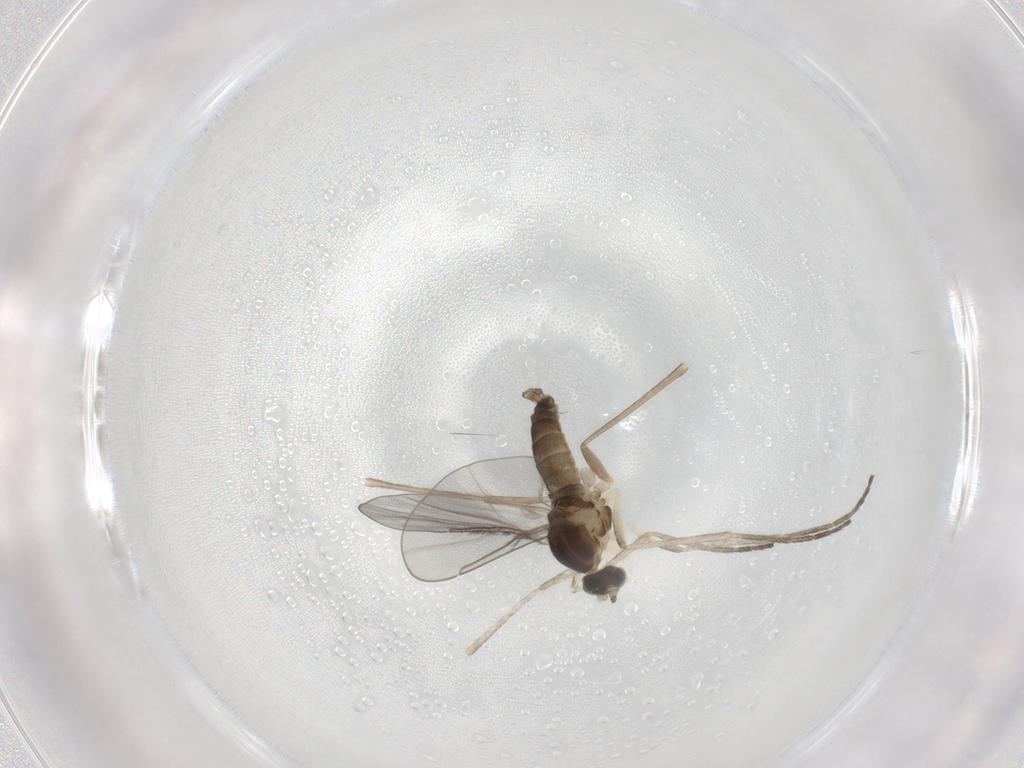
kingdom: Animalia
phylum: Arthropoda
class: Insecta
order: Diptera
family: Cecidomyiidae
